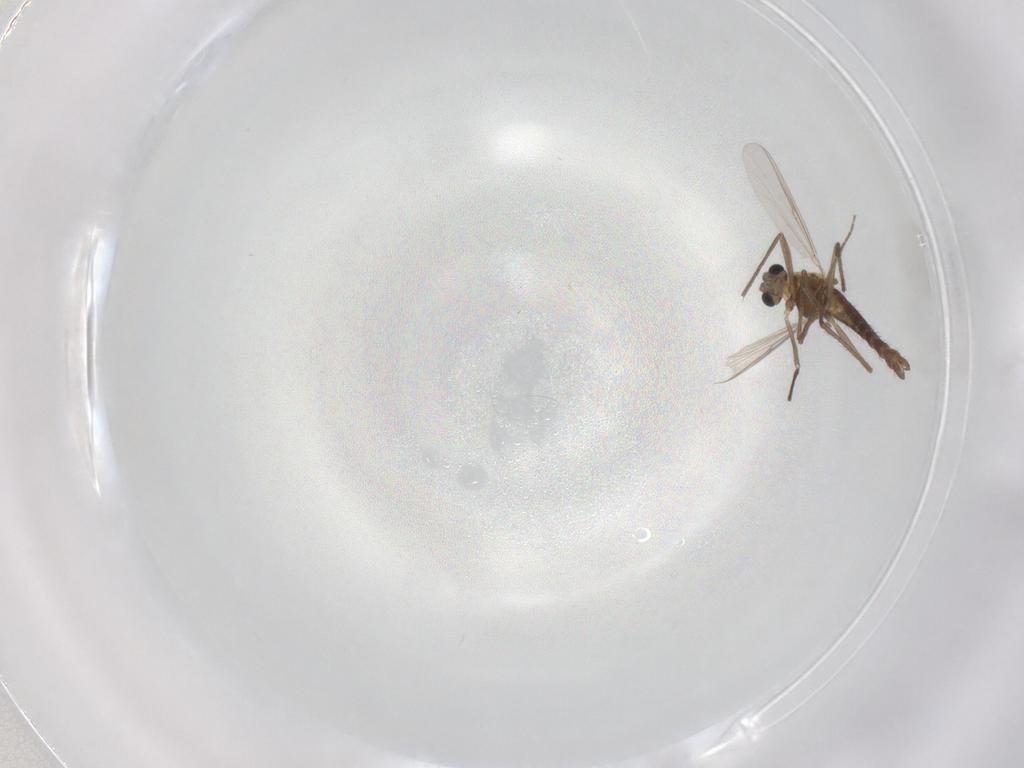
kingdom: Animalia
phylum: Arthropoda
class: Insecta
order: Diptera
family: Chironomidae
